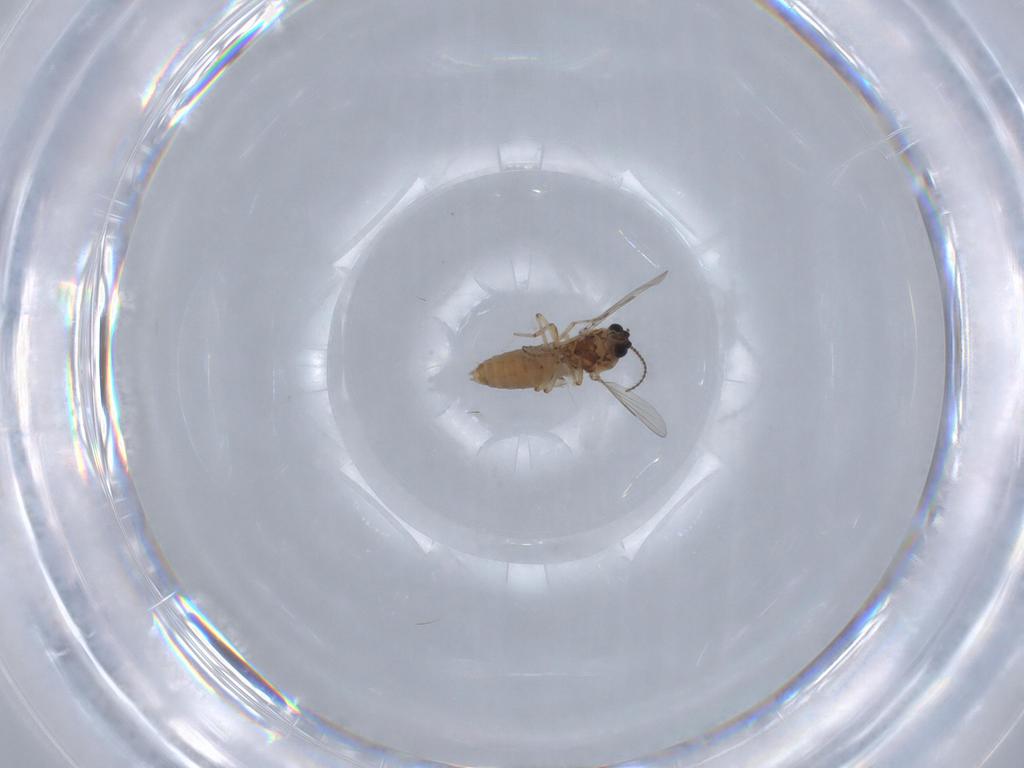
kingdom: Animalia
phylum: Arthropoda
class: Insecta
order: Diptera
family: Ceratopogonidae
